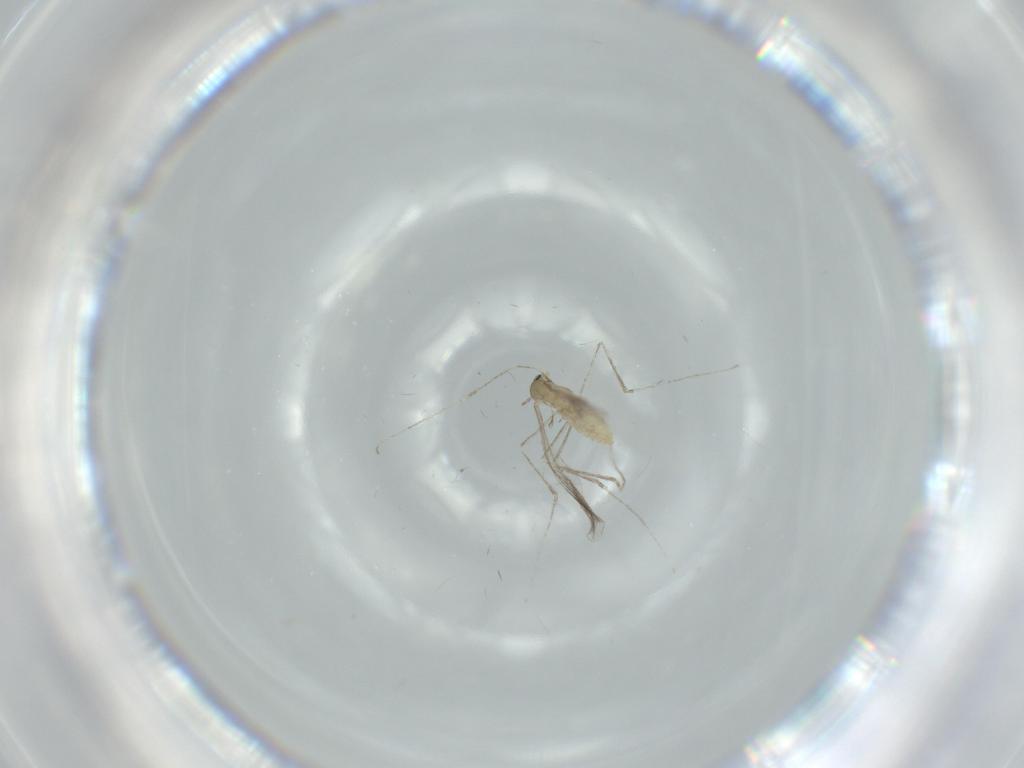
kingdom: Animalia
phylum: Arthropoda
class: Insecta
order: Diptera
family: Cecidomyiidae
